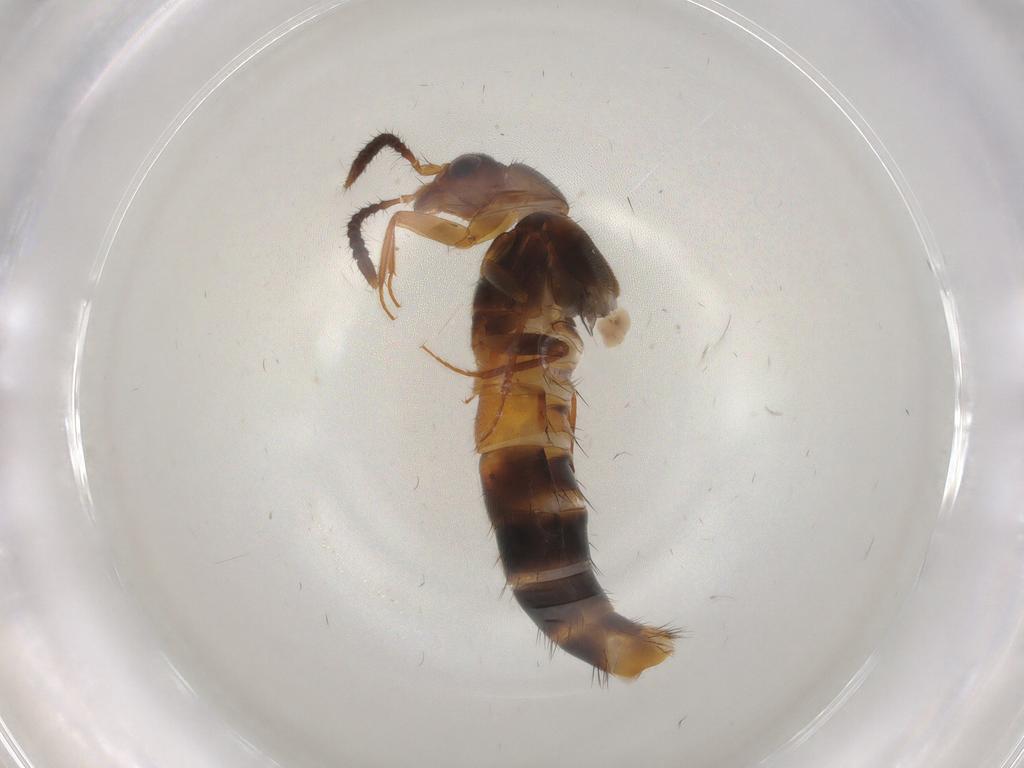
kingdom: Animalia
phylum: Arthropoda
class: Insecta
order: Coleoptera
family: Staphylinidae
